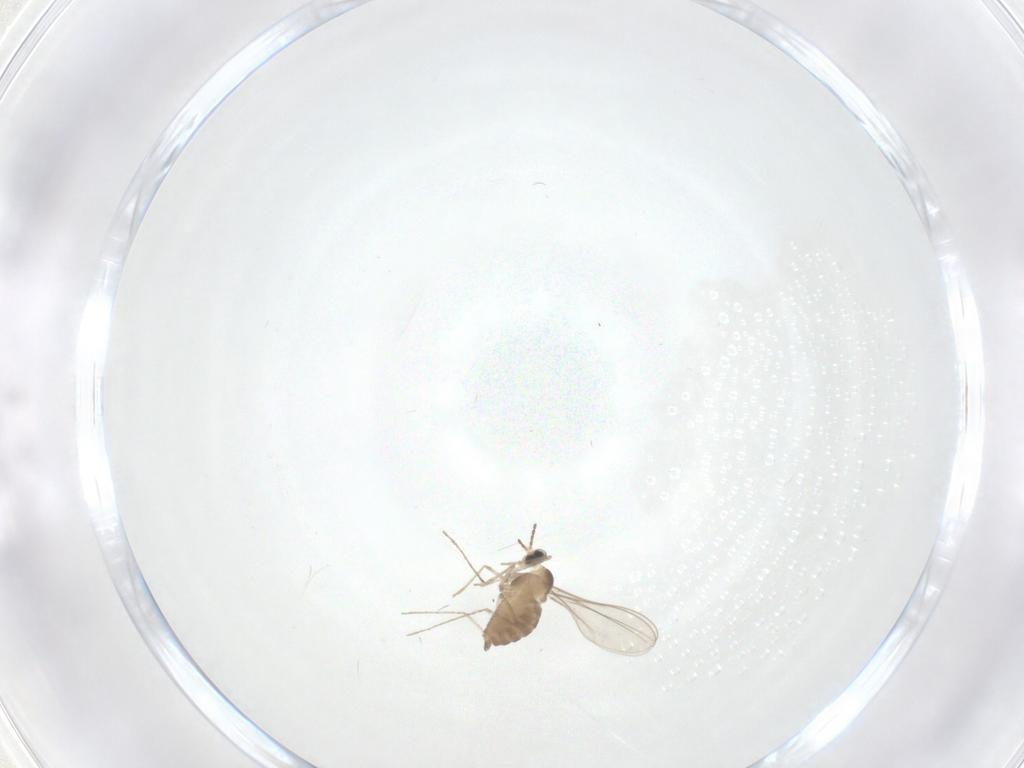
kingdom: Animalia
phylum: Arthropoda
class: Insecta
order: Diptera
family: Cecidomyiidae
